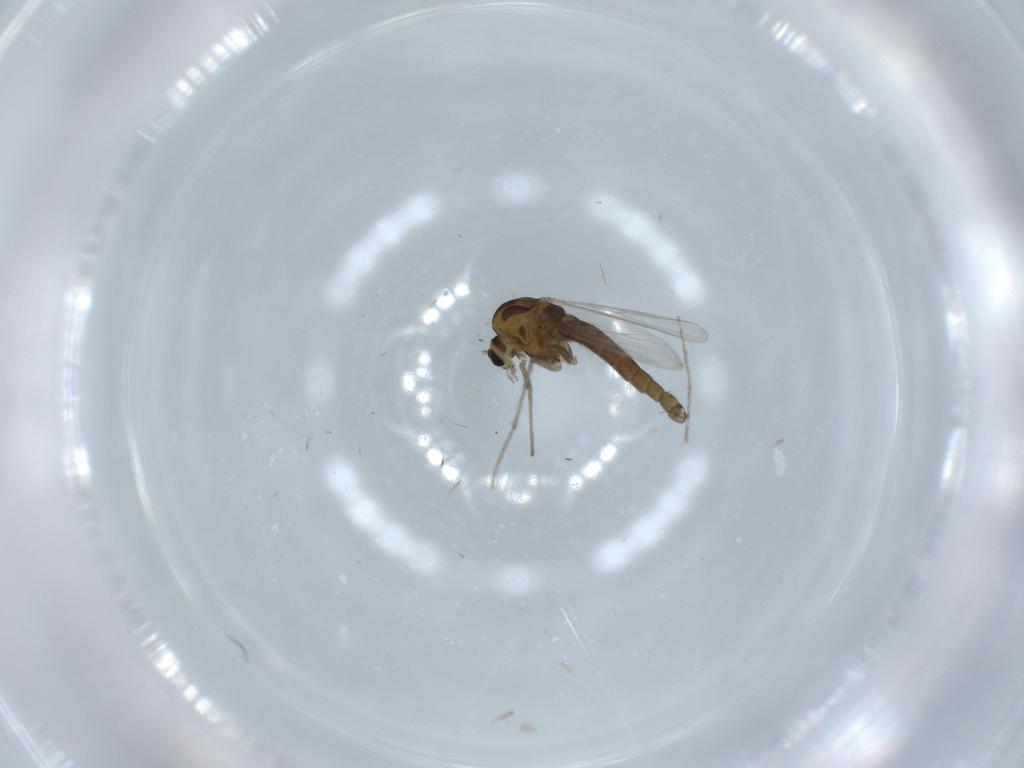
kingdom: Animalia
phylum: Arthropoda
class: Insecta
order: Diptera
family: Chironomidae
